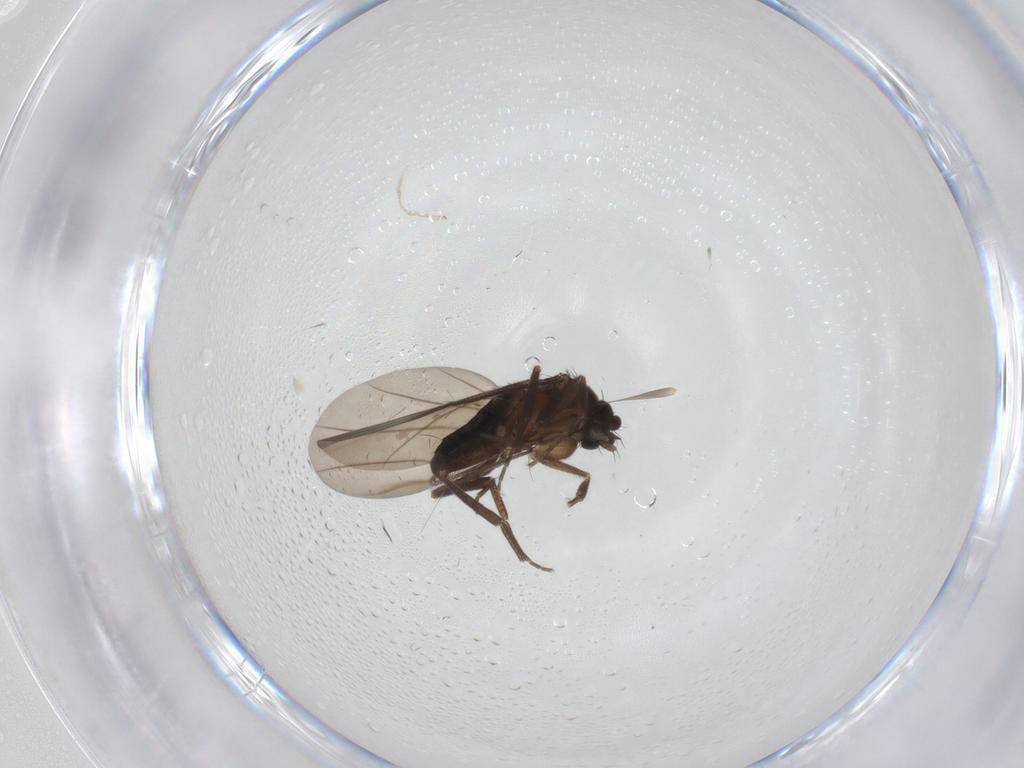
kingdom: Animalia
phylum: Arthropoda
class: Insecta
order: Diptera
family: Sciaridae
